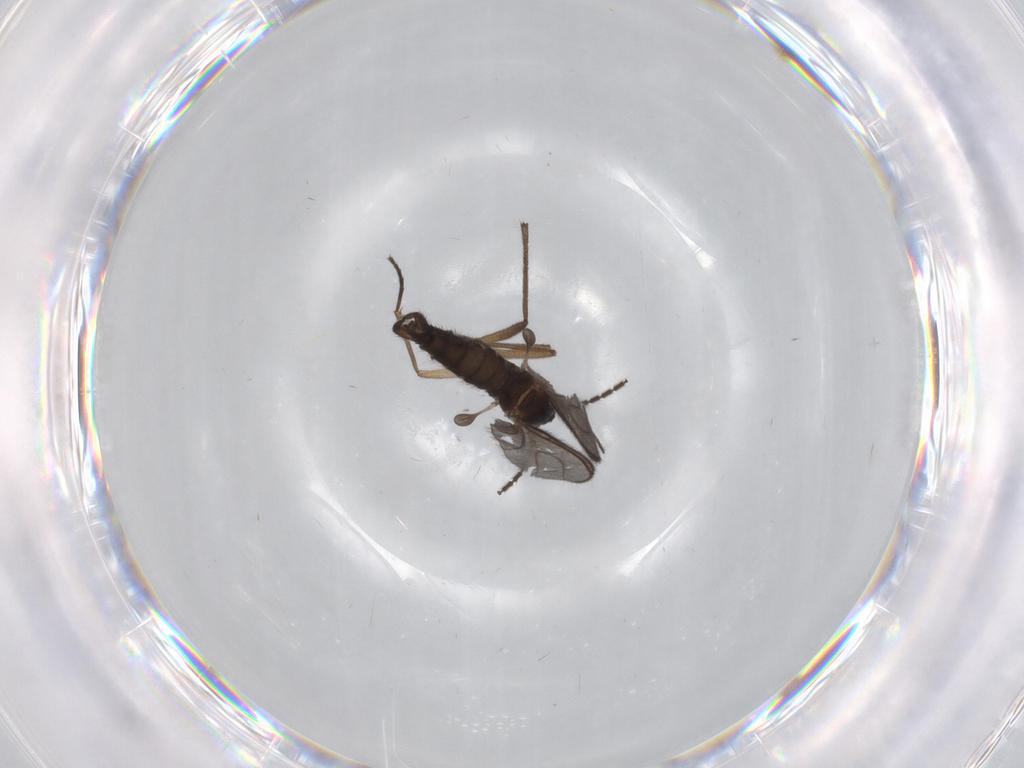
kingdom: Animalia
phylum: Arthropoda
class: Insecta
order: Diptera
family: Sciaridae
